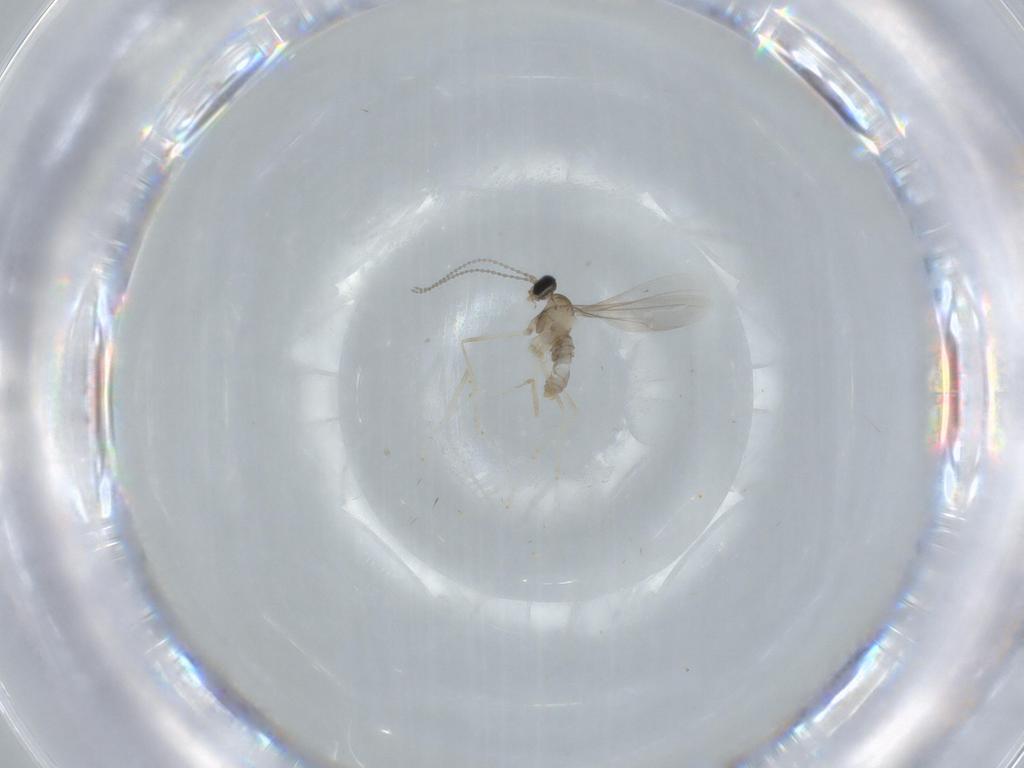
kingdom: Animalia
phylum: Arthropoda
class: Insecta
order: Diptera
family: Cecidomyiidae
